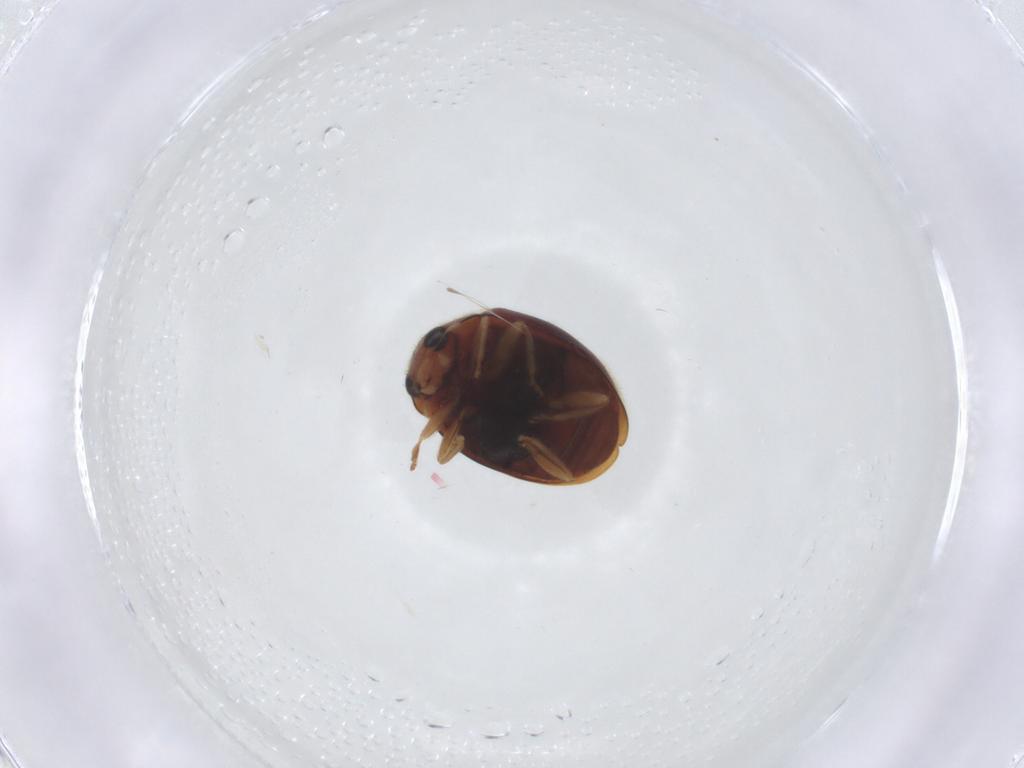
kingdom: Animalia
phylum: Arthropoda
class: Insecta
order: Coleoptera
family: Coccinellidae
